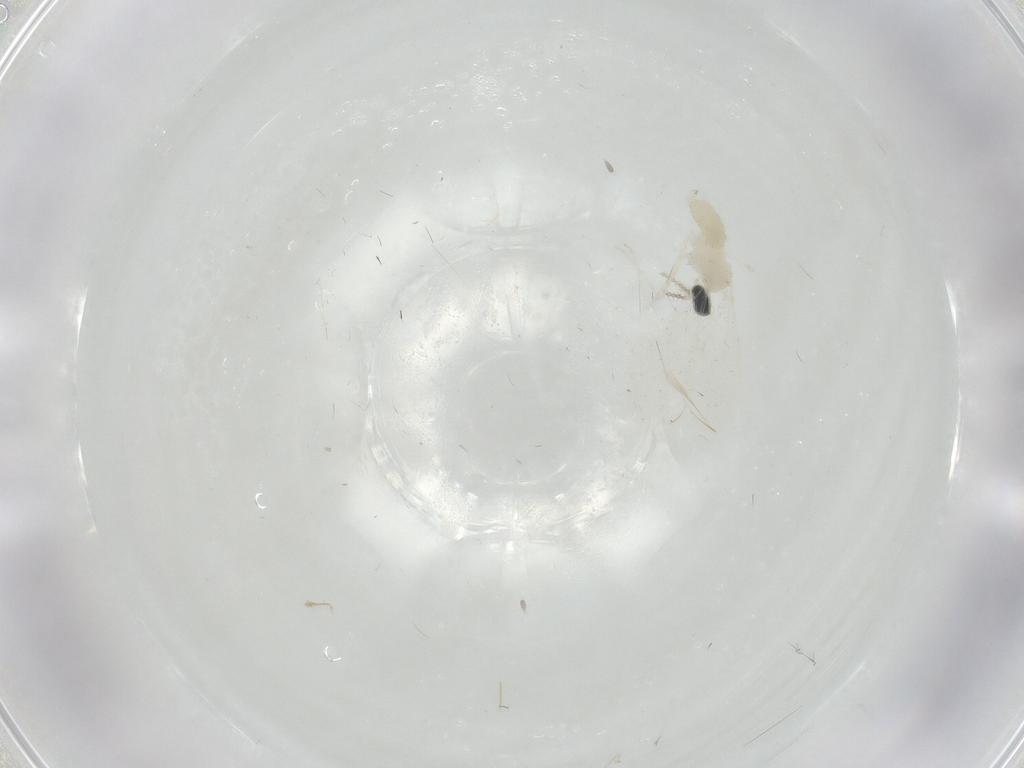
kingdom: Animalia
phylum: Arthropoda
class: Insecta
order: Diptera
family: Cecidomyiidae
